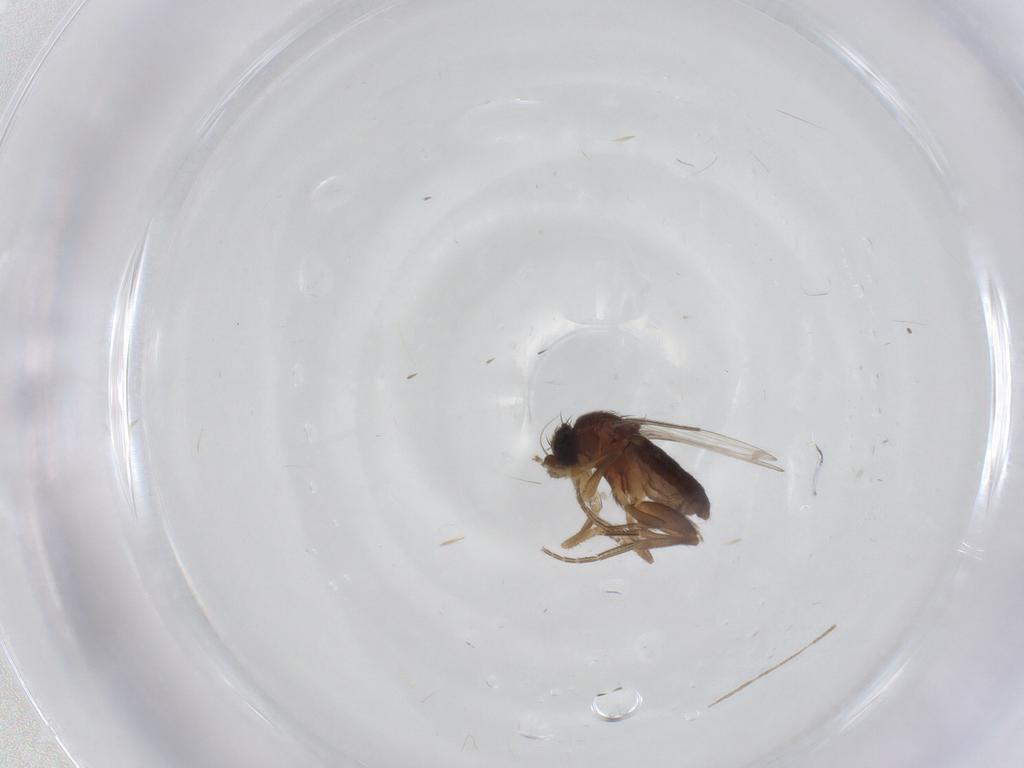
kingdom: Animalia
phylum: Arthropoda
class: Insecta
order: Diptera
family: Phoridae
